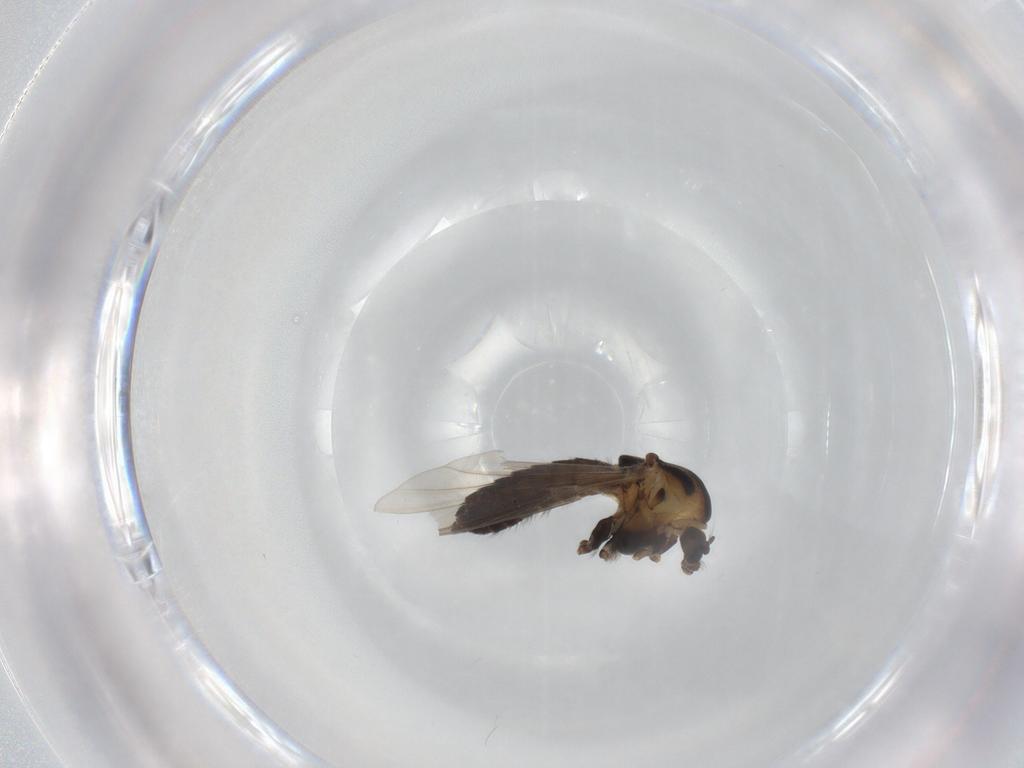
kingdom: Animalia
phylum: Arthropoda
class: Insecta
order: Diptera
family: Chironomidae
